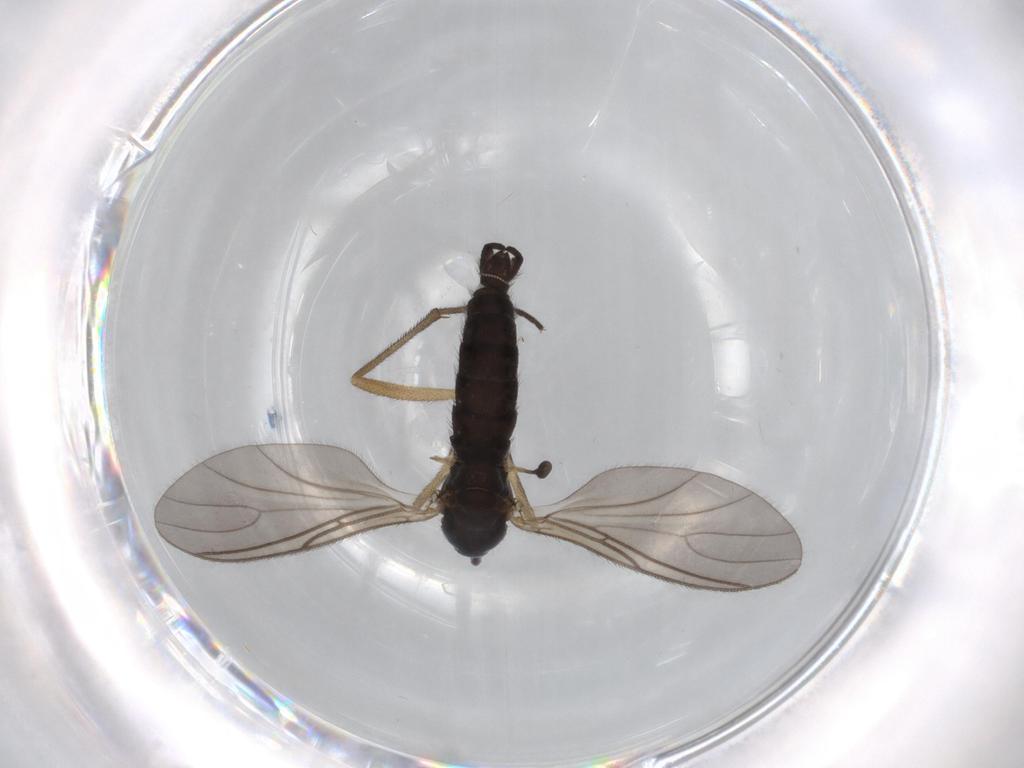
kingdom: Animalia
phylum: Arthropoda
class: Insecta
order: Diptera
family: Sciaridae
